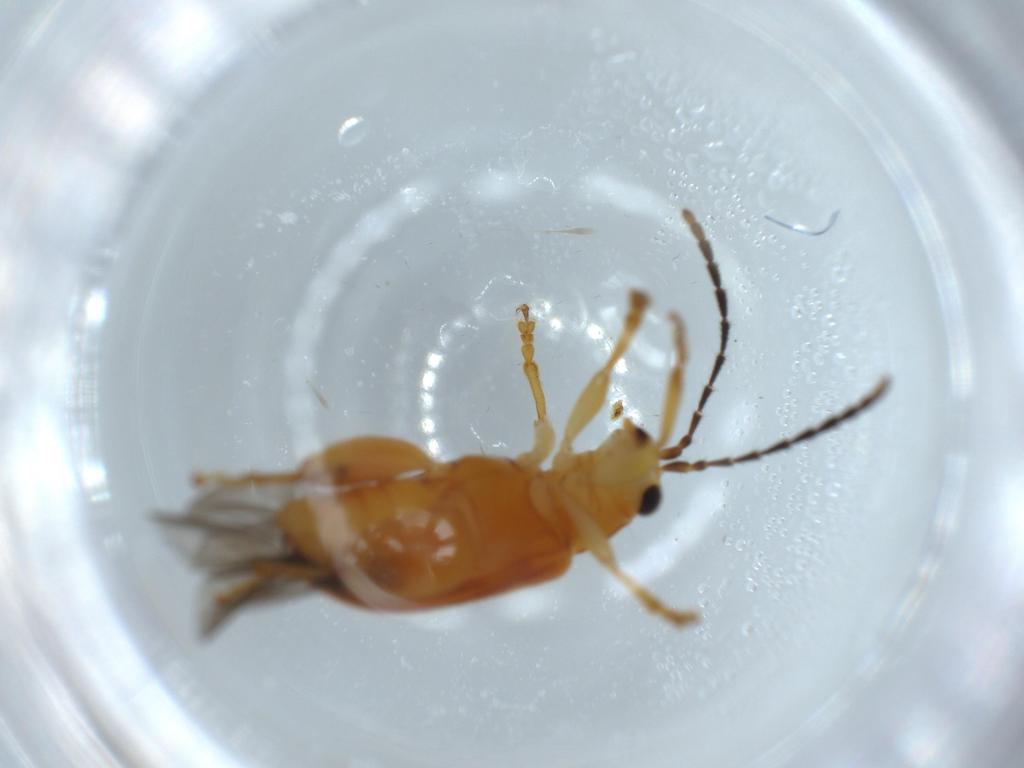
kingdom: Animalia
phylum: Arthropoda
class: Insecta
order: Coleoptera
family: Chrysomelidae
